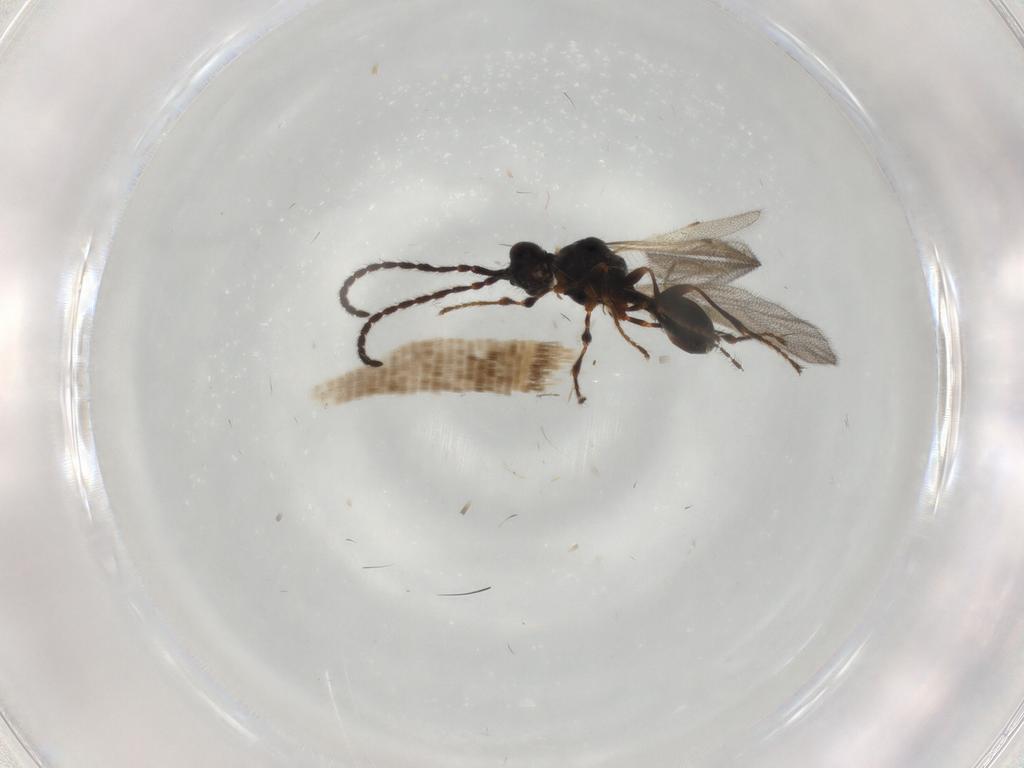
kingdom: Animalia
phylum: Arthropoda
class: Insecta
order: Hymenoptera
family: Diapriidae
